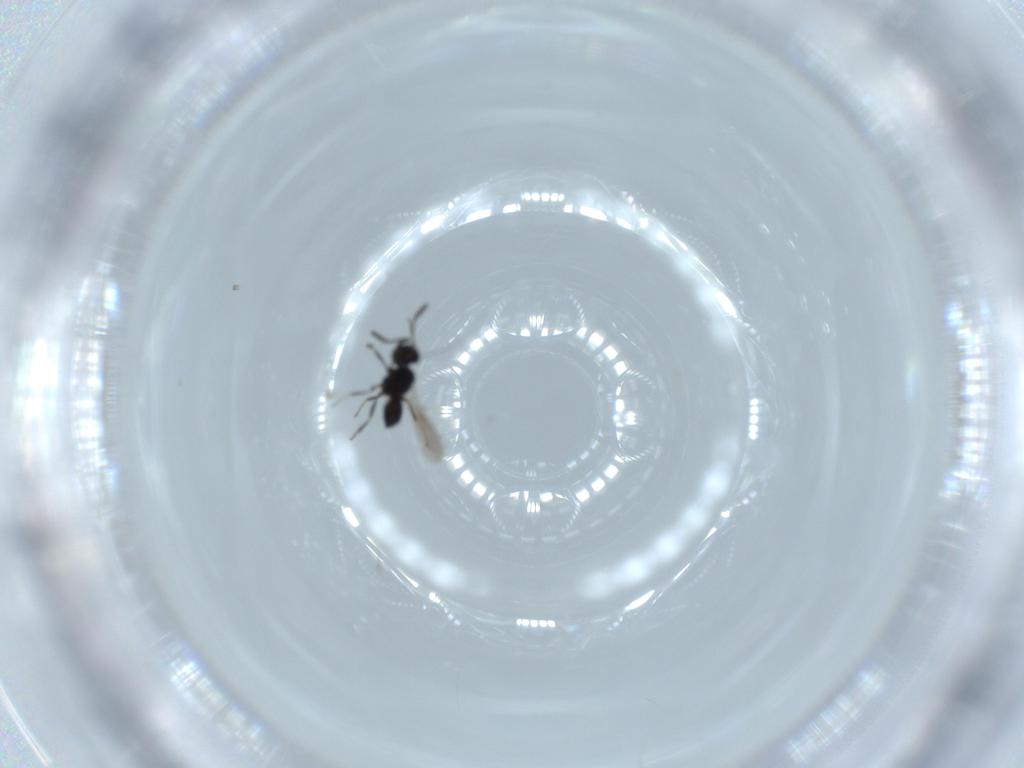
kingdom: Animalia
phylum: Arthropoda
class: Insecta
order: Hymenoptera
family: Scelionidae
